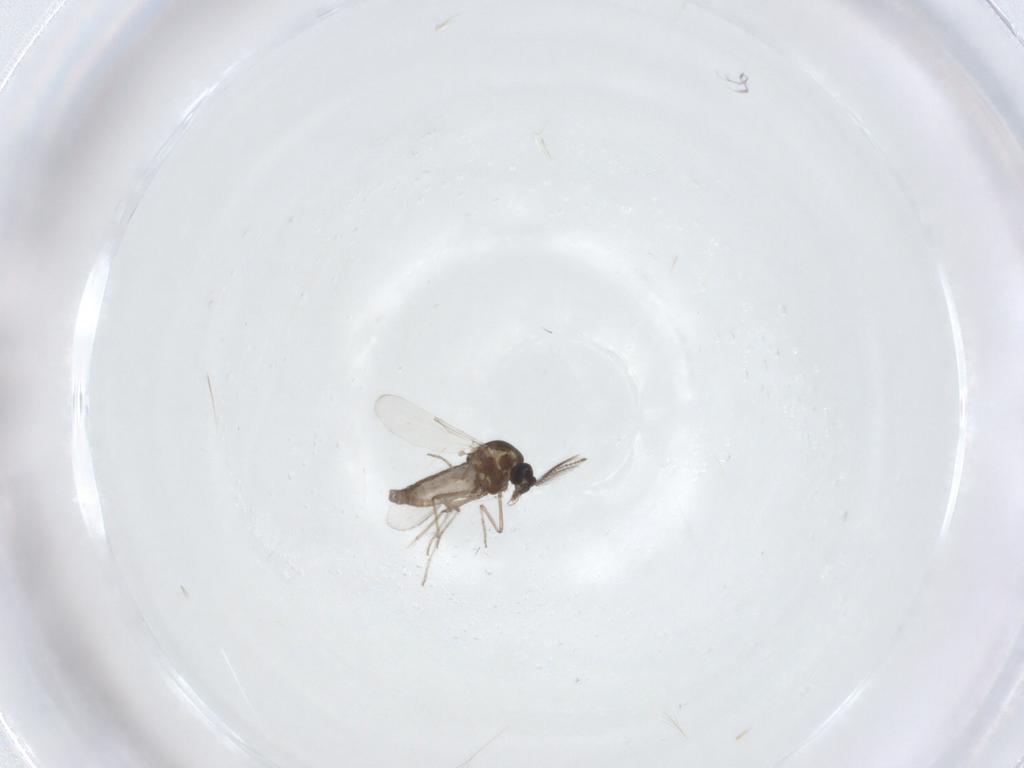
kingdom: Animalia
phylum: Arthropoda
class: Insecta
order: Diptera
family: Ceratopogonidae
